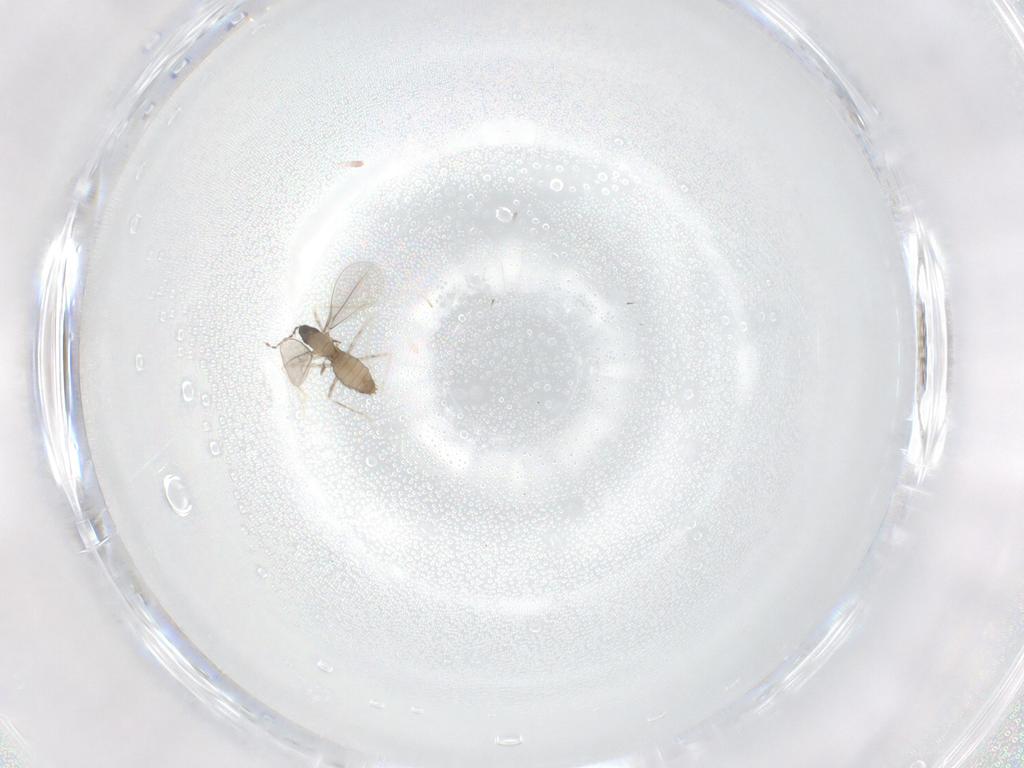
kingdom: Animalia
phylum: Arthropoda
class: Insecta
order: Diptera
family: Cecidomyiidae
